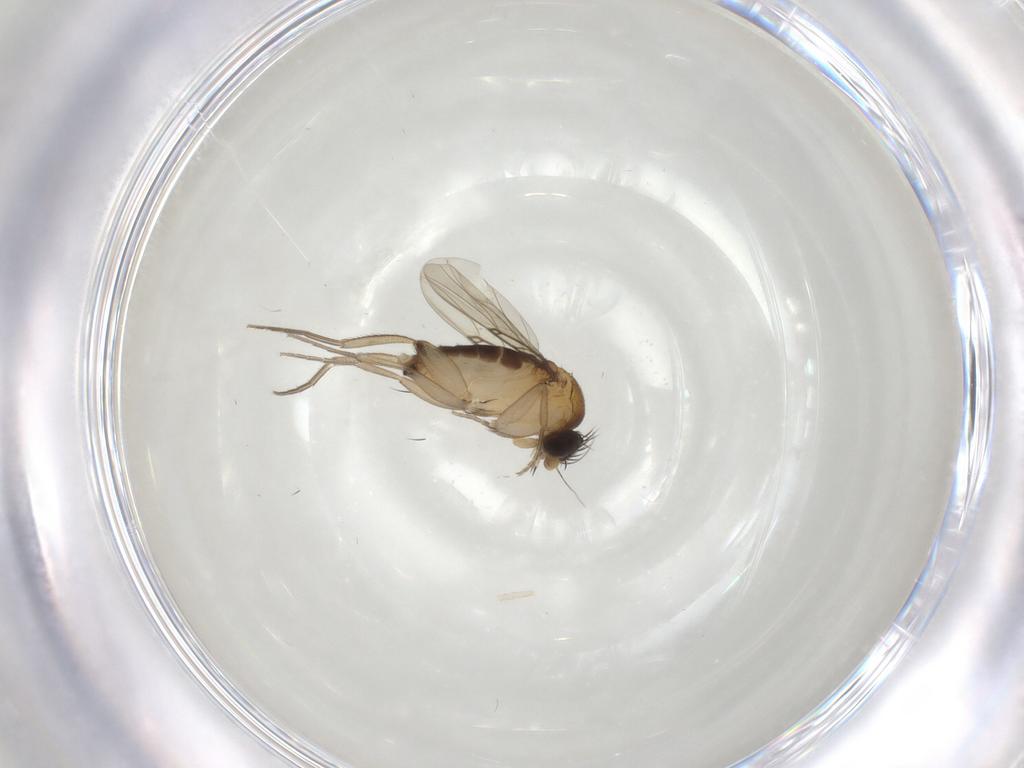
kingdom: Animalia
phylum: Arthropoda
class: Insecta
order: Diptera
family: Phoridae
